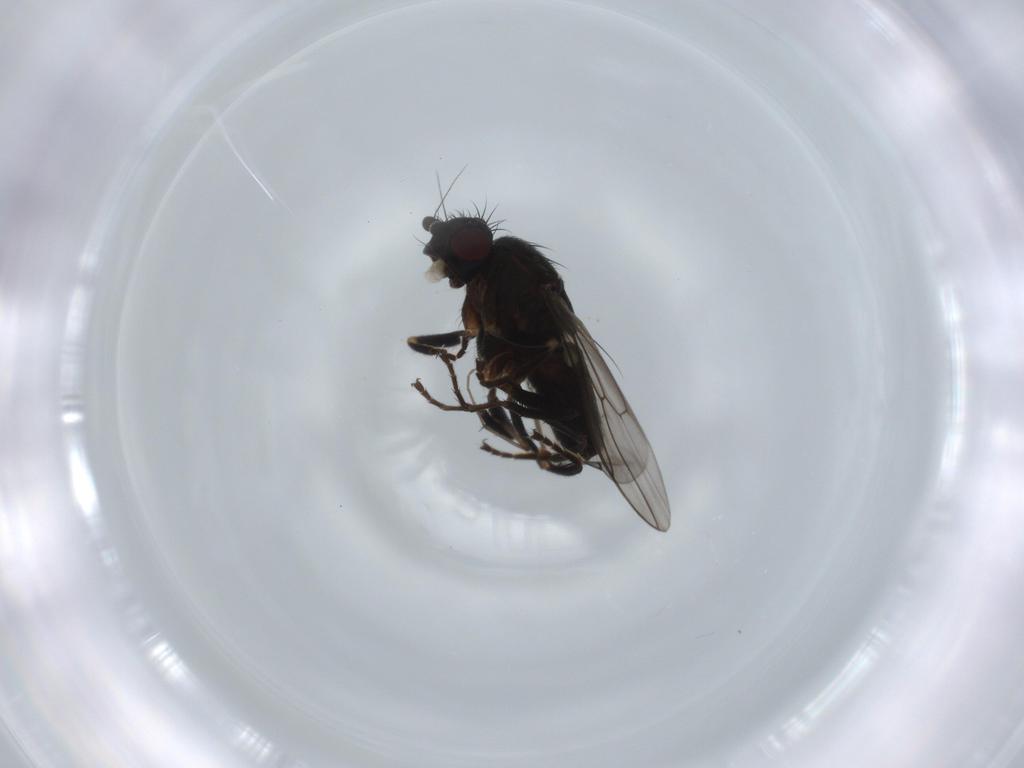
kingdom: Animalia
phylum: Arthropoda
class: Insecta
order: Diptera
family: Sphaeroceridae
